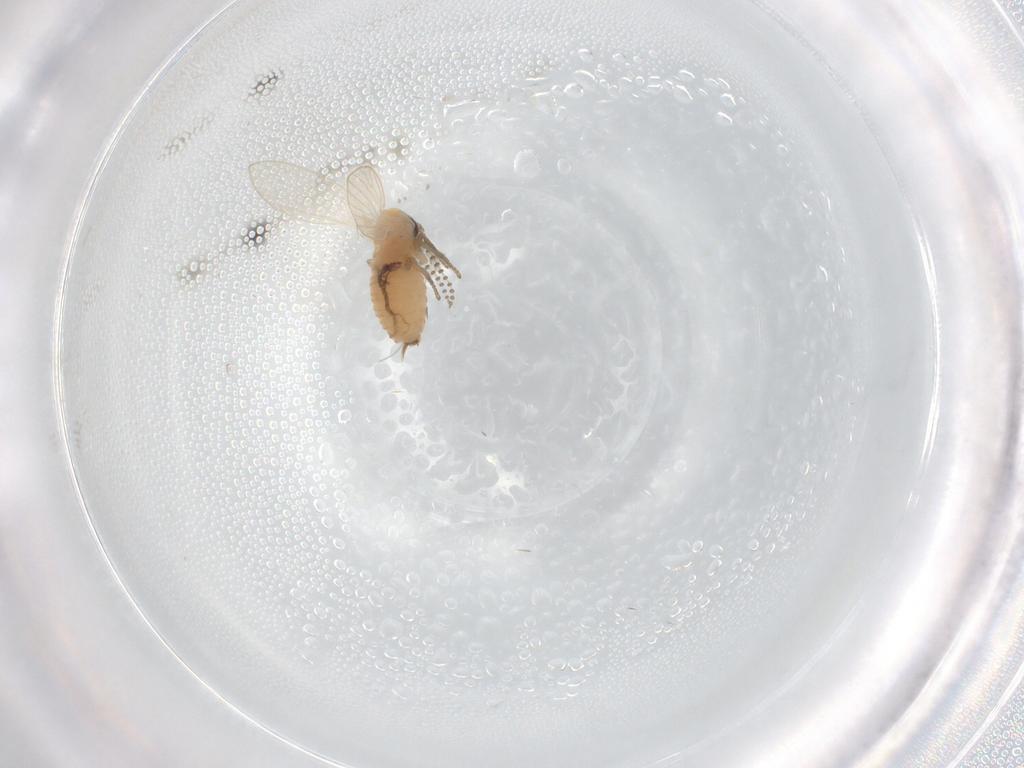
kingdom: Animalia
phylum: Arthropoda
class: Insecta
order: Diptera
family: Psychodidae
